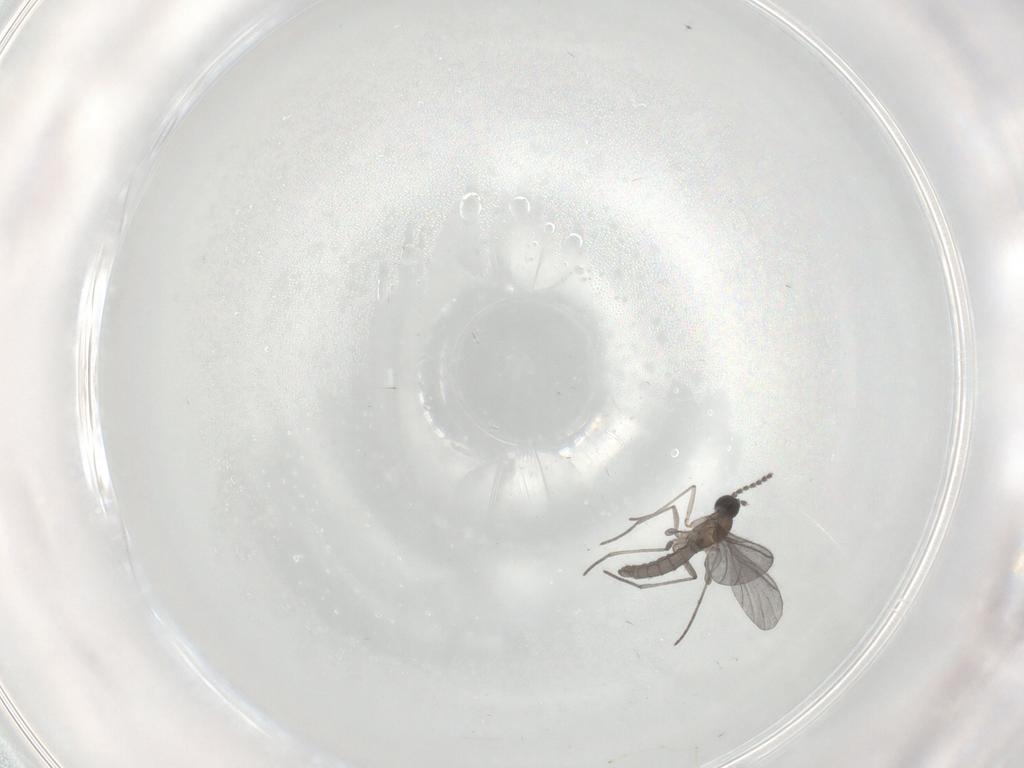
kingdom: Animalia
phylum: Arthropoda
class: Insecta
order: Diptera
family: Cecidomyiidae
